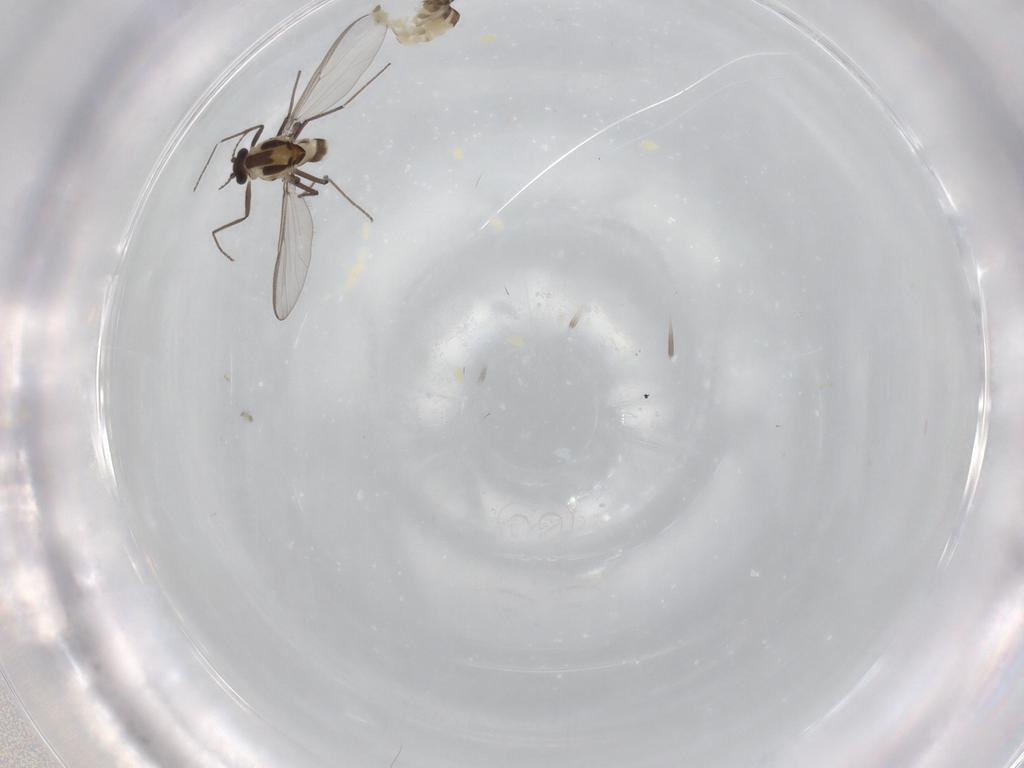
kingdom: Animalia
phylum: Arthropoda
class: Insecta
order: Diptera
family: Chironomidae
